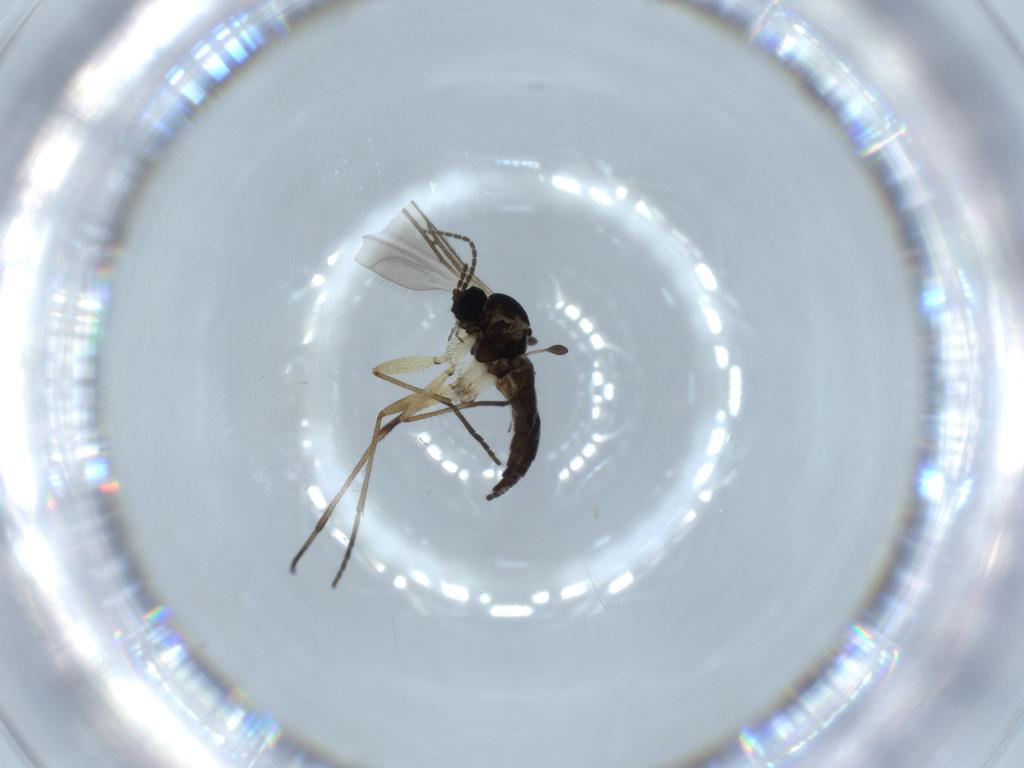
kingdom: Animalia
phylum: Arthropoda
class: Insecta
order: Diptera
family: Sciaridae
